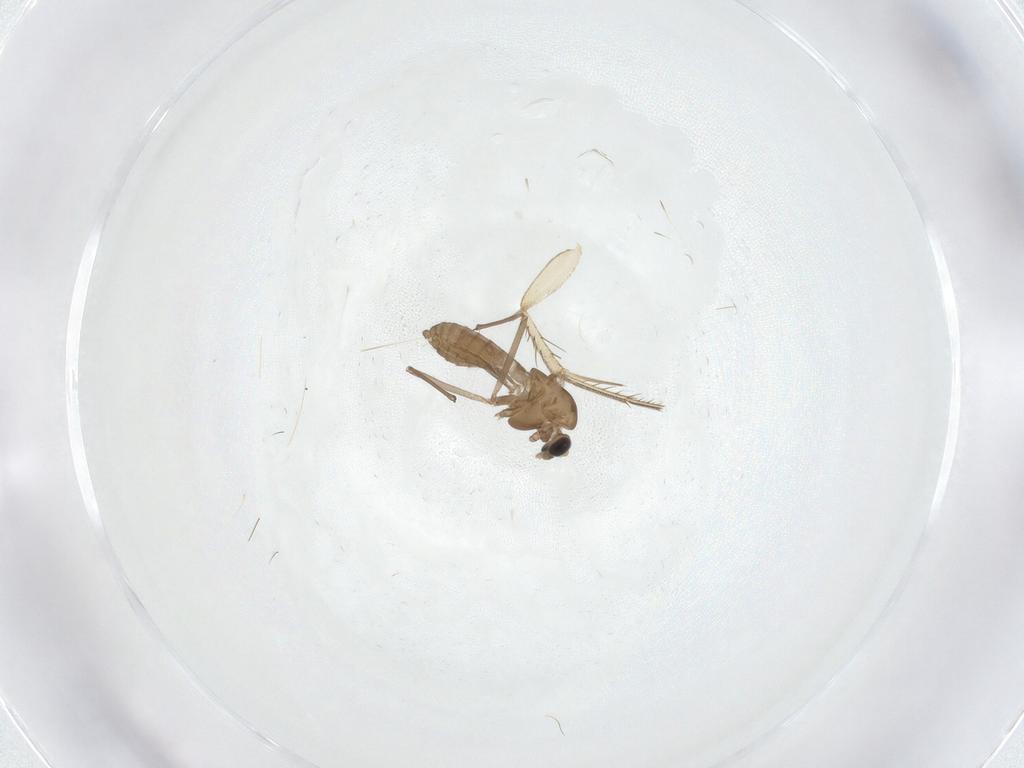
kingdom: Animalia
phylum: Arthropoda
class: Insecta
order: Diptera
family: Chironomidae
